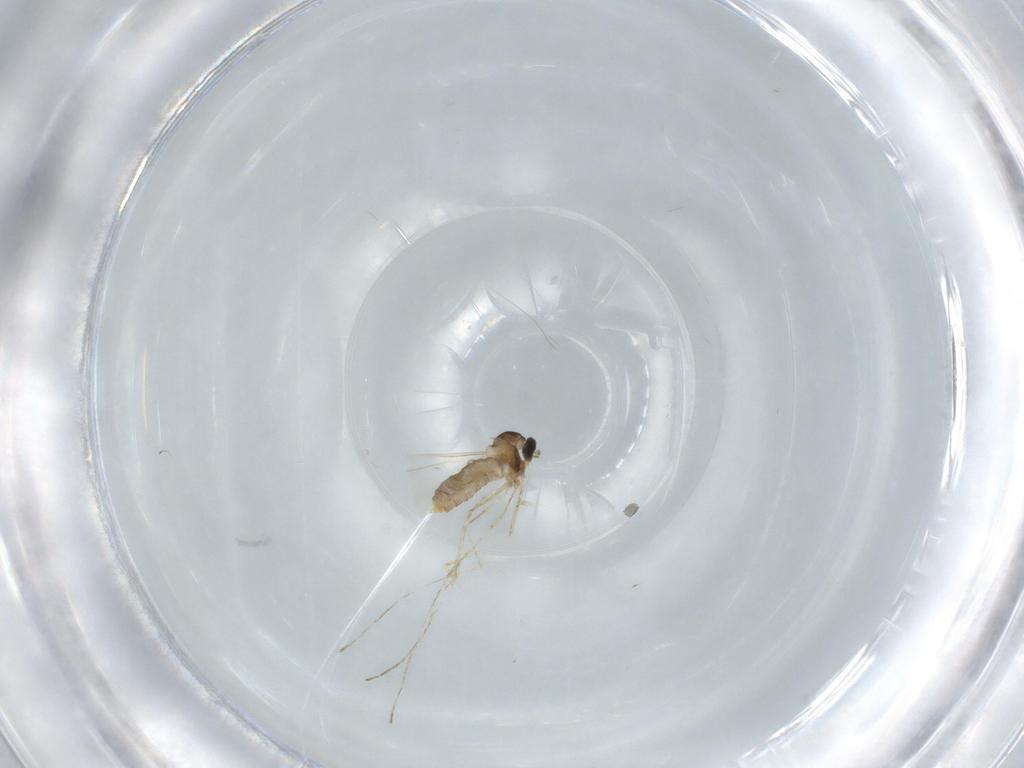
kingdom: Animalia
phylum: Arthropoda
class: Insecta
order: Diptera
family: Cecidomyiidae
